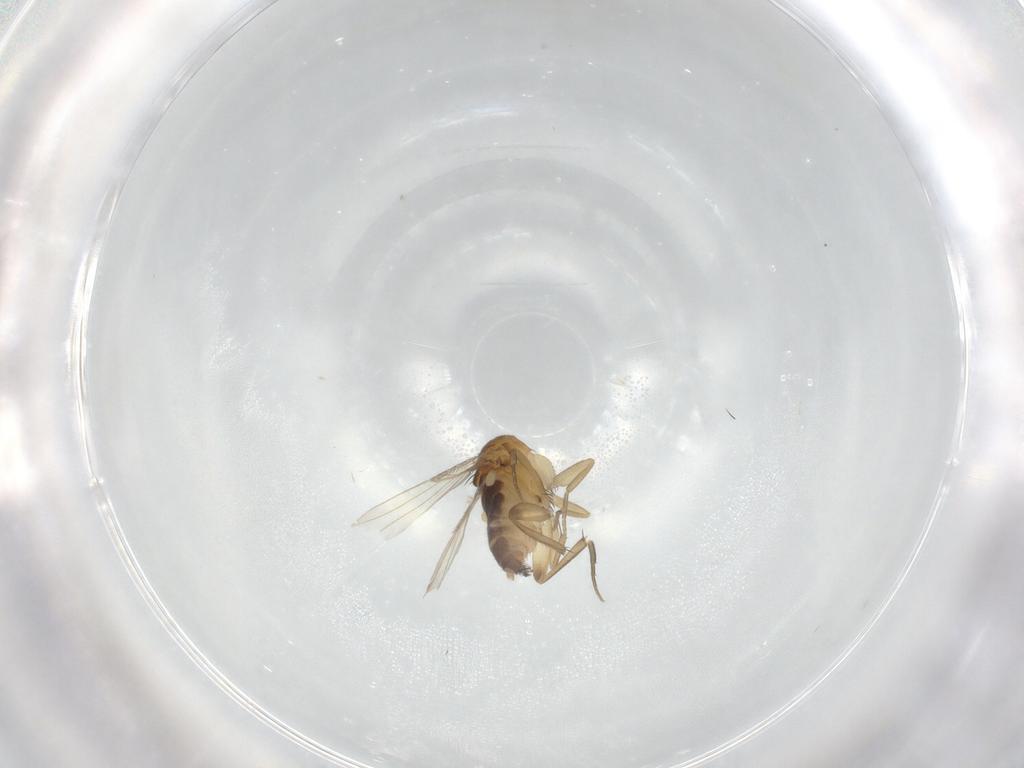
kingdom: Animalia
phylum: Arthropoda
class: Insecta
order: Diptera
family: Phoridae
